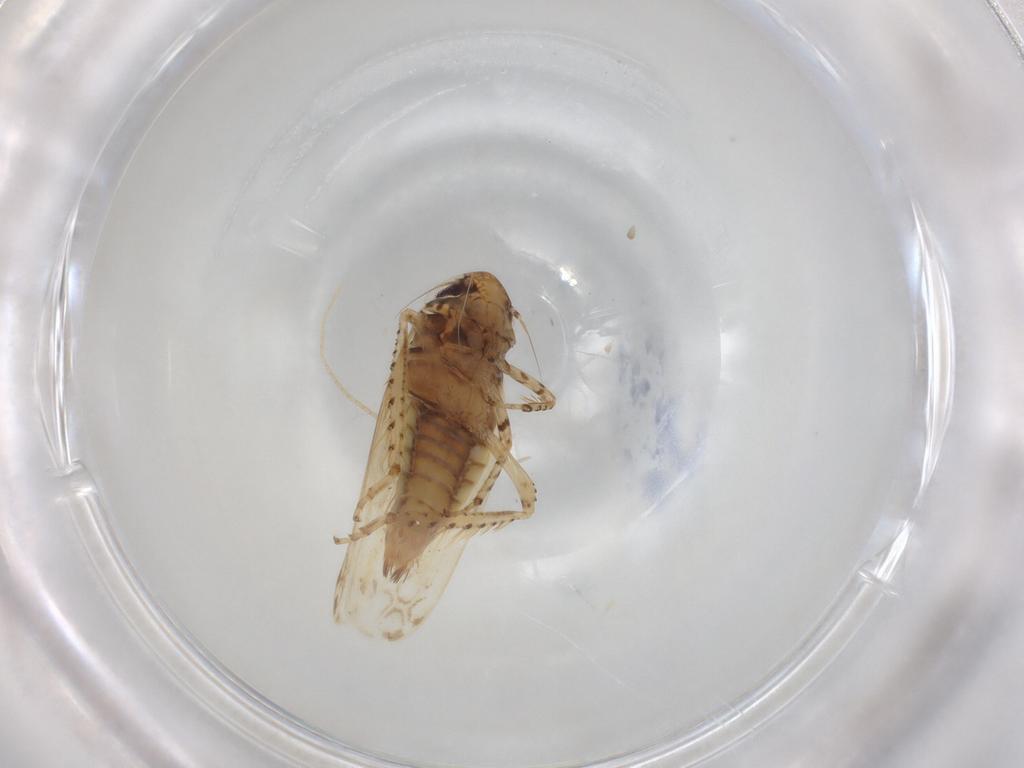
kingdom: Animalia
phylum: Arthropoda
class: Insecta
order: Hemiptera
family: Cicadellidae
